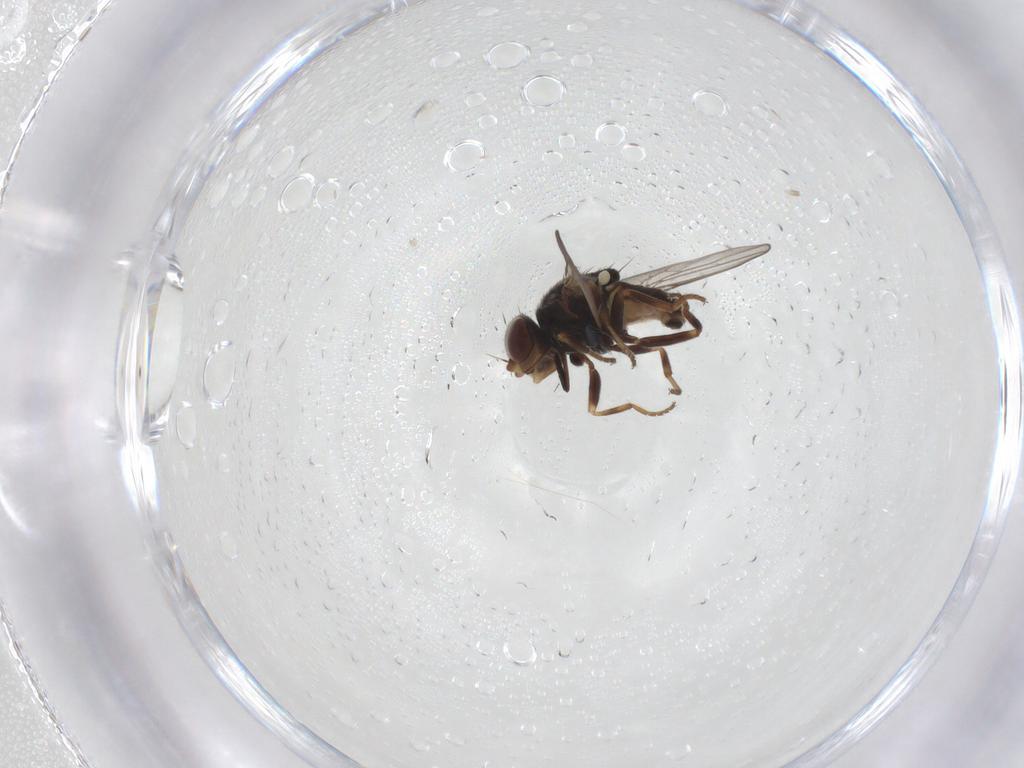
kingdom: Animalia
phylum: Arthropoda
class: Insecta
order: Diptera
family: Chloropidae
